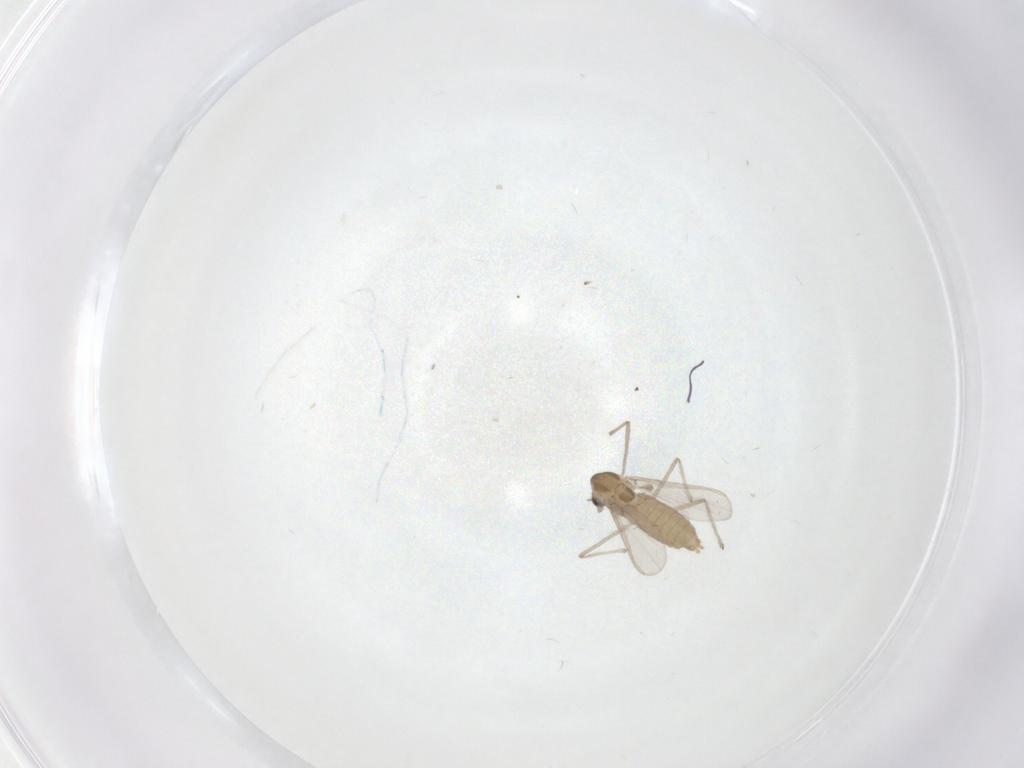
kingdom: Animalia
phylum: Arthropoda
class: Insecta
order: Diptera
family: Chironomidae
